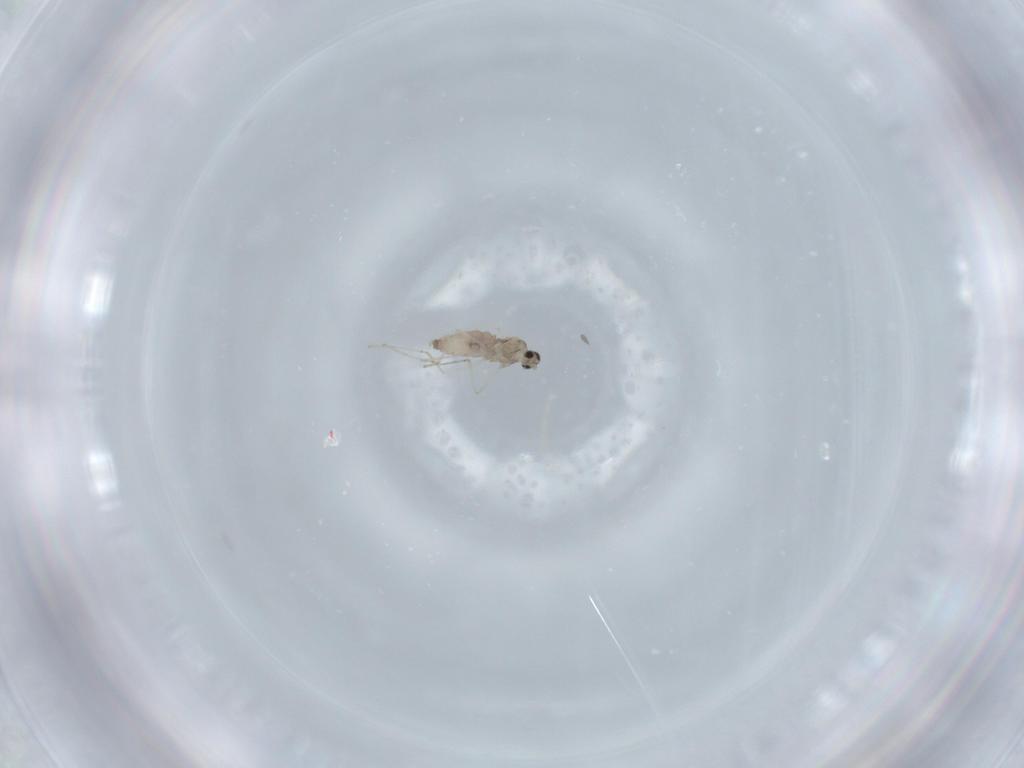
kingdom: Animalia
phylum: Arthropoda
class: Insecta
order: Diptera
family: Cecidomyiidae
